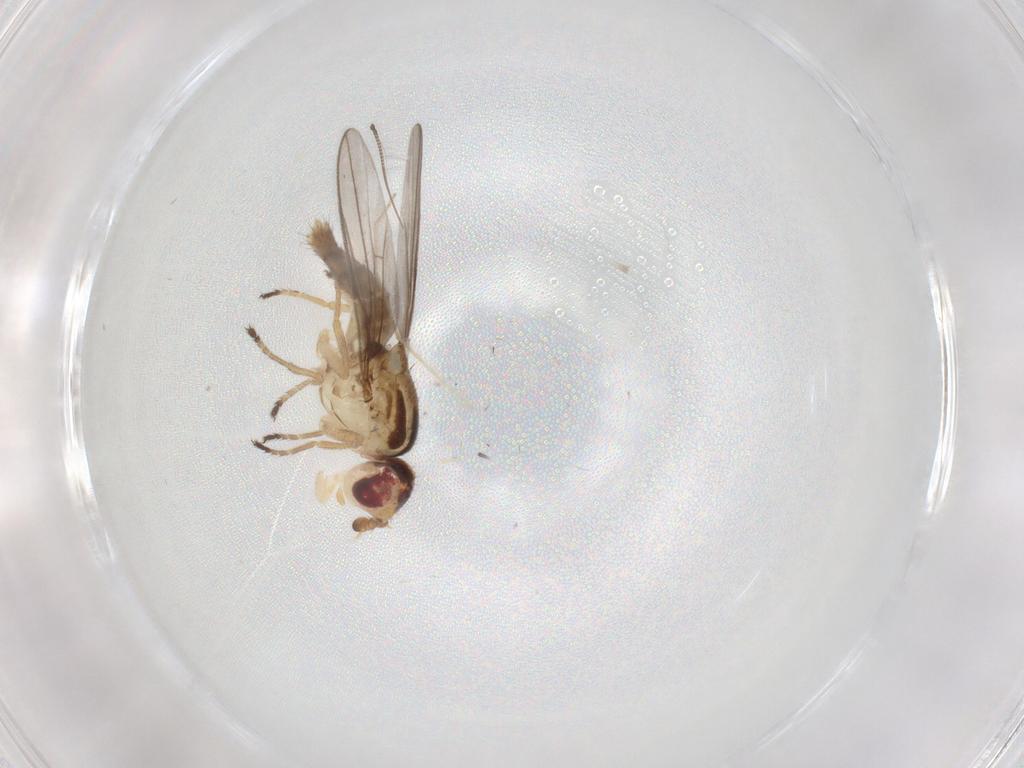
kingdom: Animalia
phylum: Arthropoda
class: Insecta
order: Diptera
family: Chloropidae
